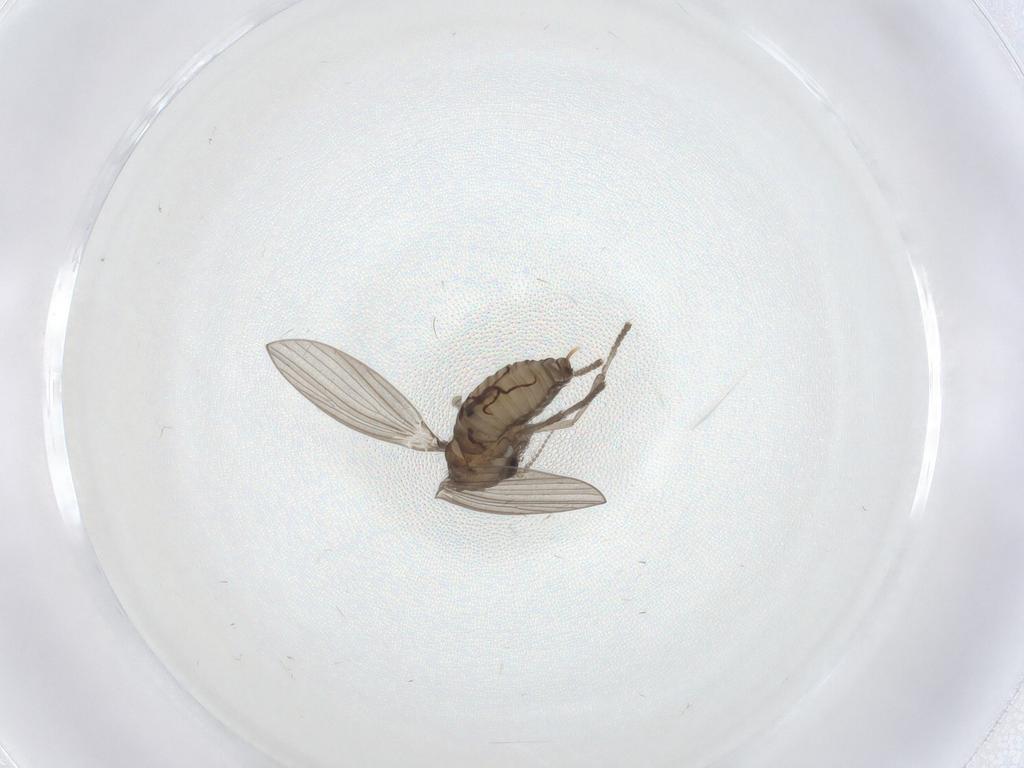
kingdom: Animalia
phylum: Arthropoda
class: Insecta
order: Diptera
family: Psychodidae
